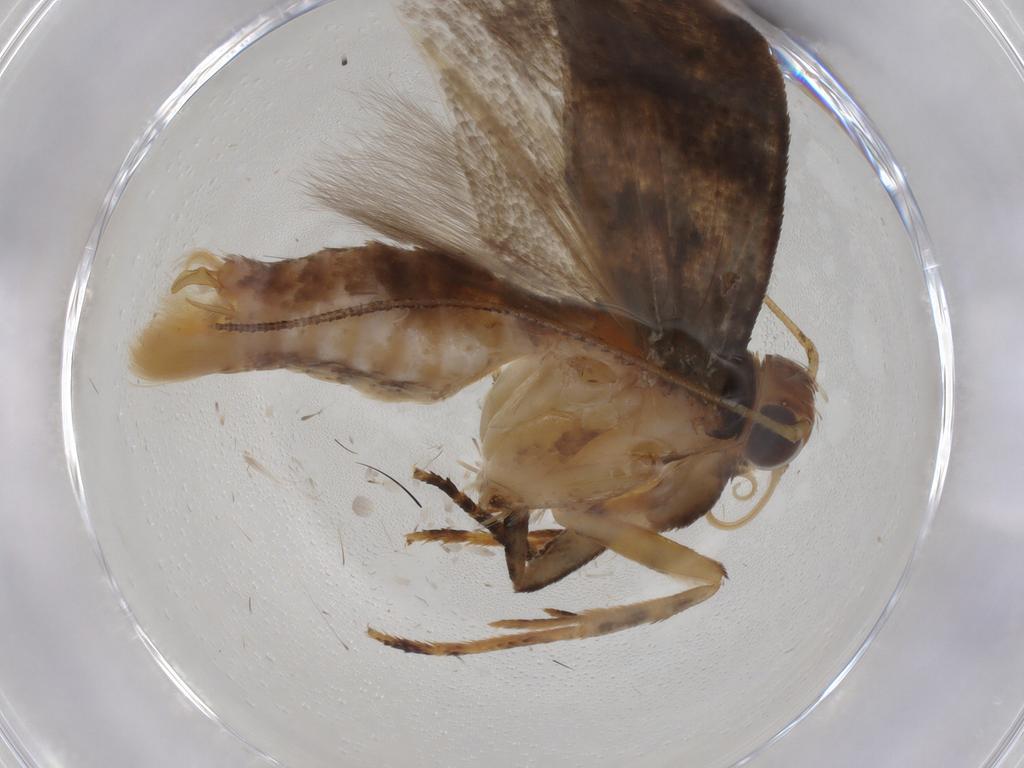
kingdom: Animalia
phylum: Arthropoda
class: Insecta
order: Lepidoptera
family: Gelechiidae
